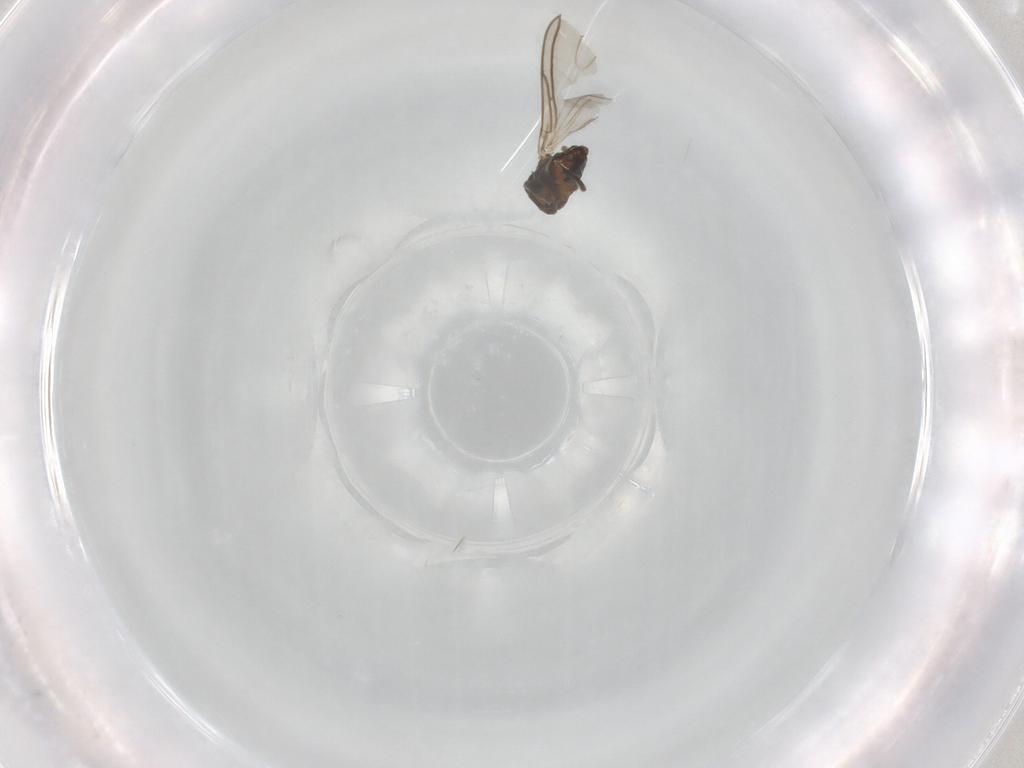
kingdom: Animalia
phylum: Arthropoda
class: Insecta
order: Diptera
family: Sciaridae
